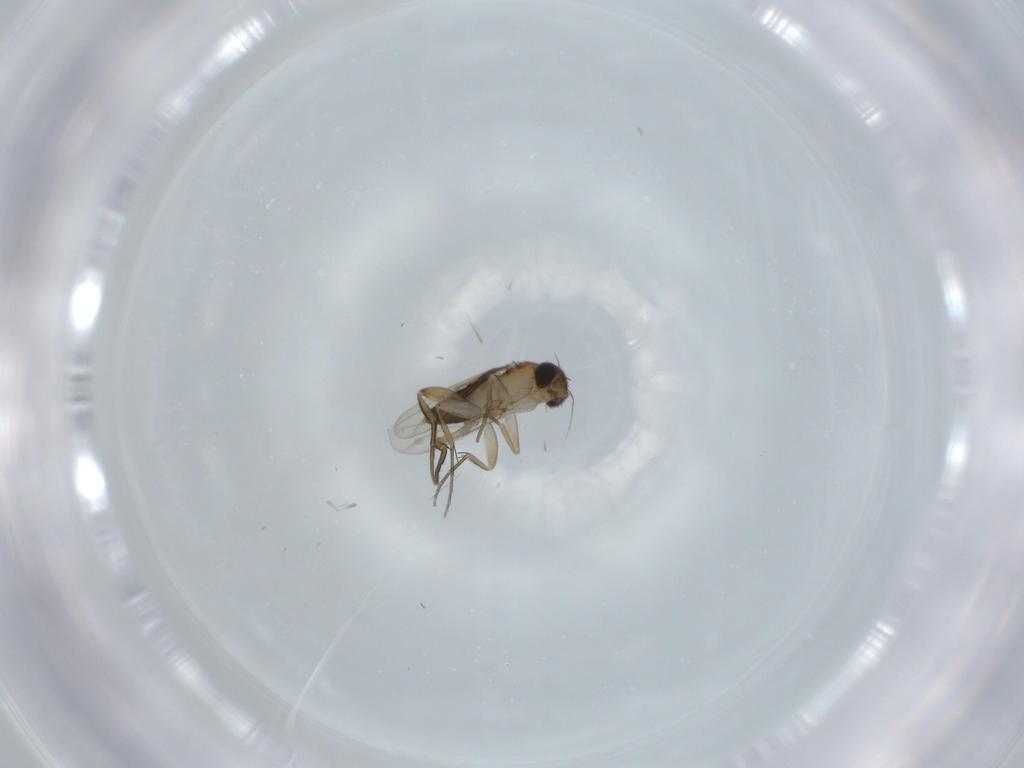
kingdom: Animalia
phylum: Arthropoda
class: Insecta
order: Diptera
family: Phoridae
